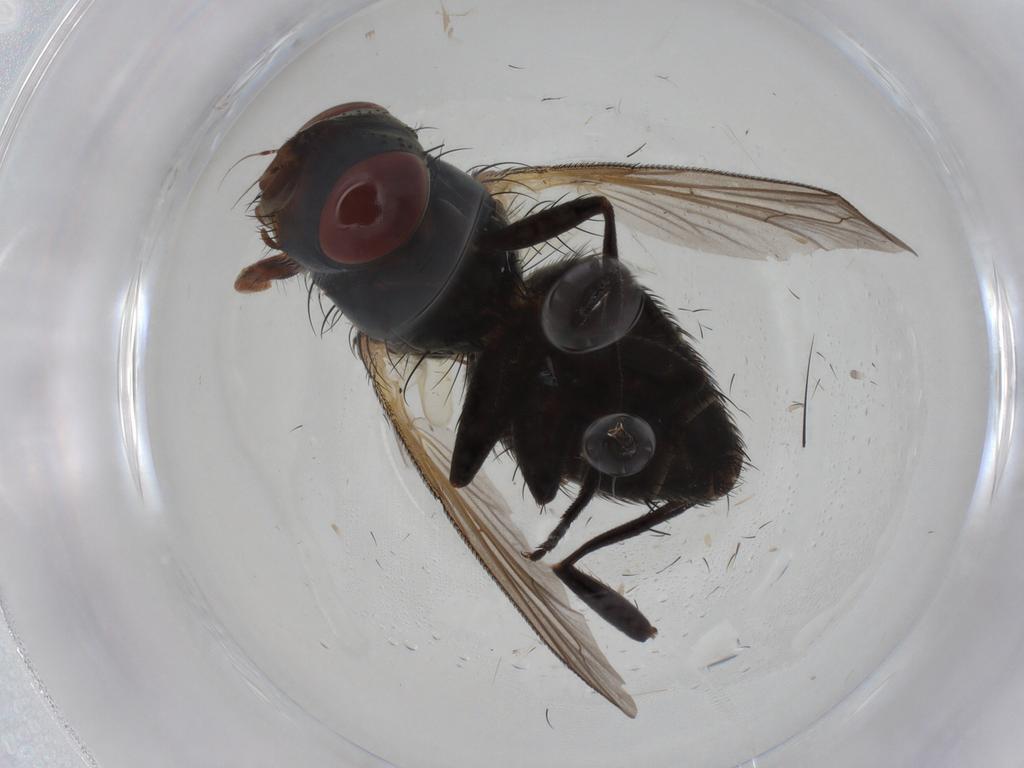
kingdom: Animalia
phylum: Arthropoda
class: Insecta
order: Diptera
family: Sarcophagidae
